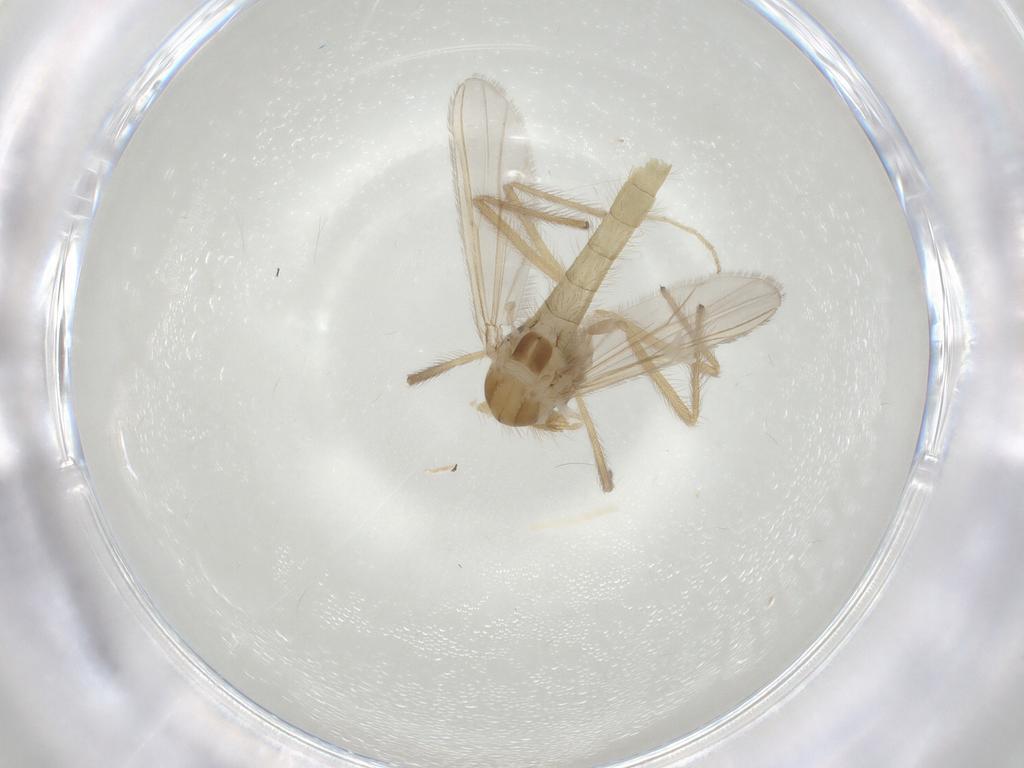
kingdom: Animalia
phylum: Arthropoda
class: Insecta
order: Diptera
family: Chironomidae
